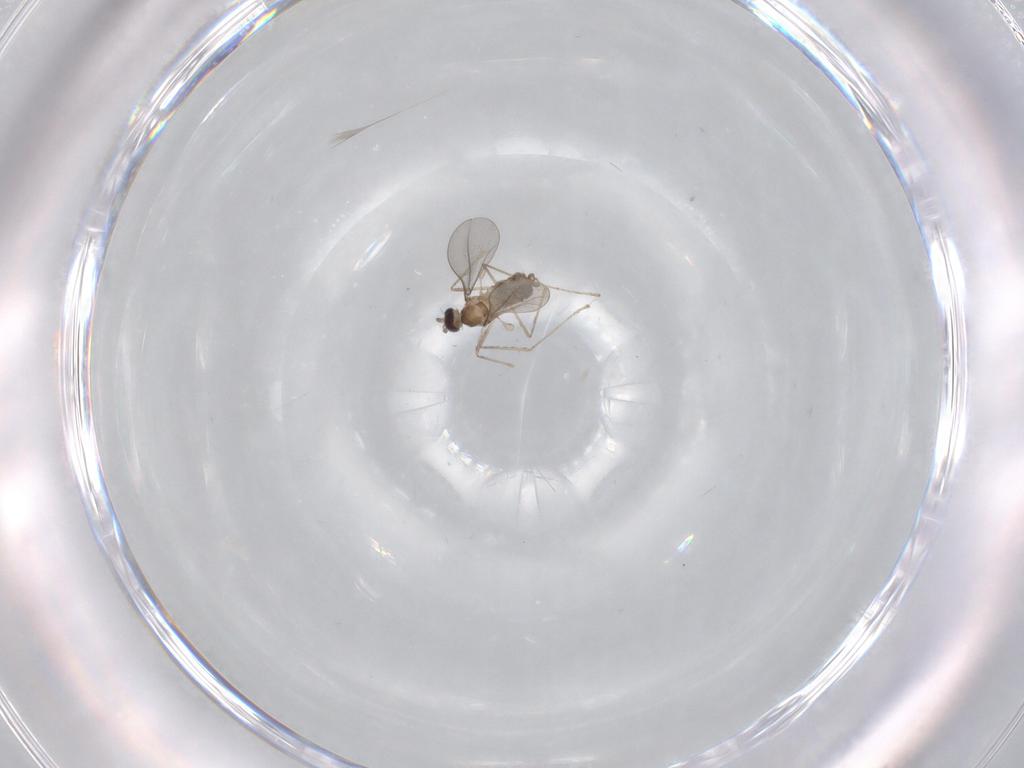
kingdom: Animalia
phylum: Arthropoda
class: Insecta
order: Diptera
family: Cecidomyiidae
